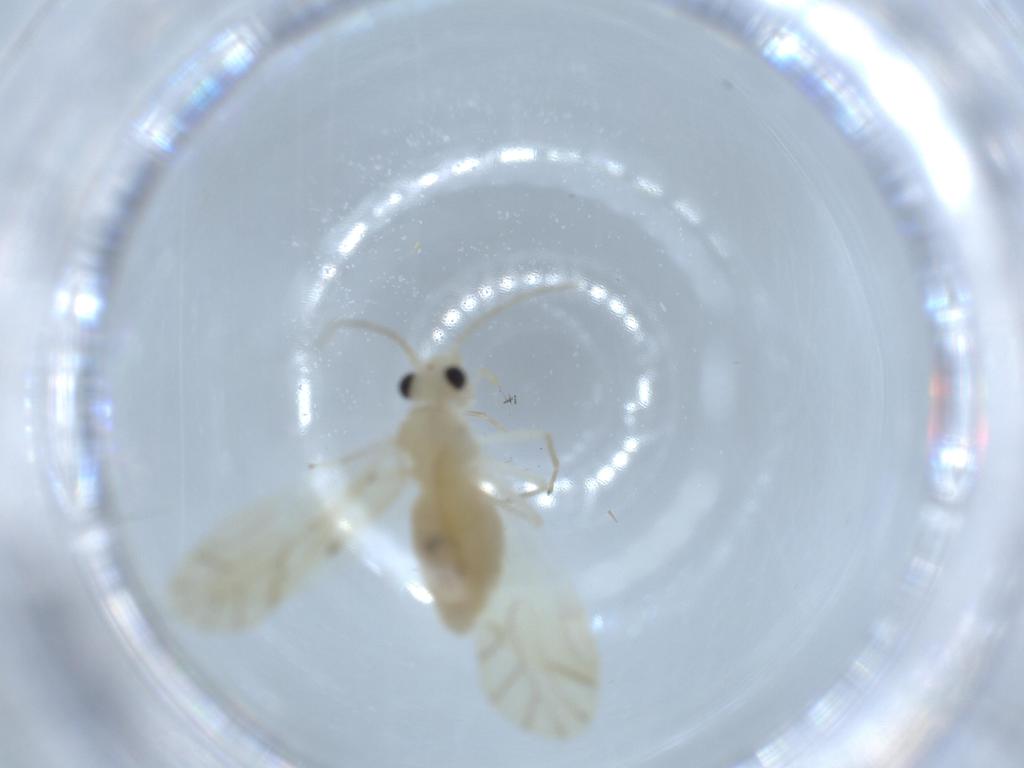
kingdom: Animalia
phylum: Arthropoda
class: Insecta
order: Psocodea
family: Caeciliusidae
